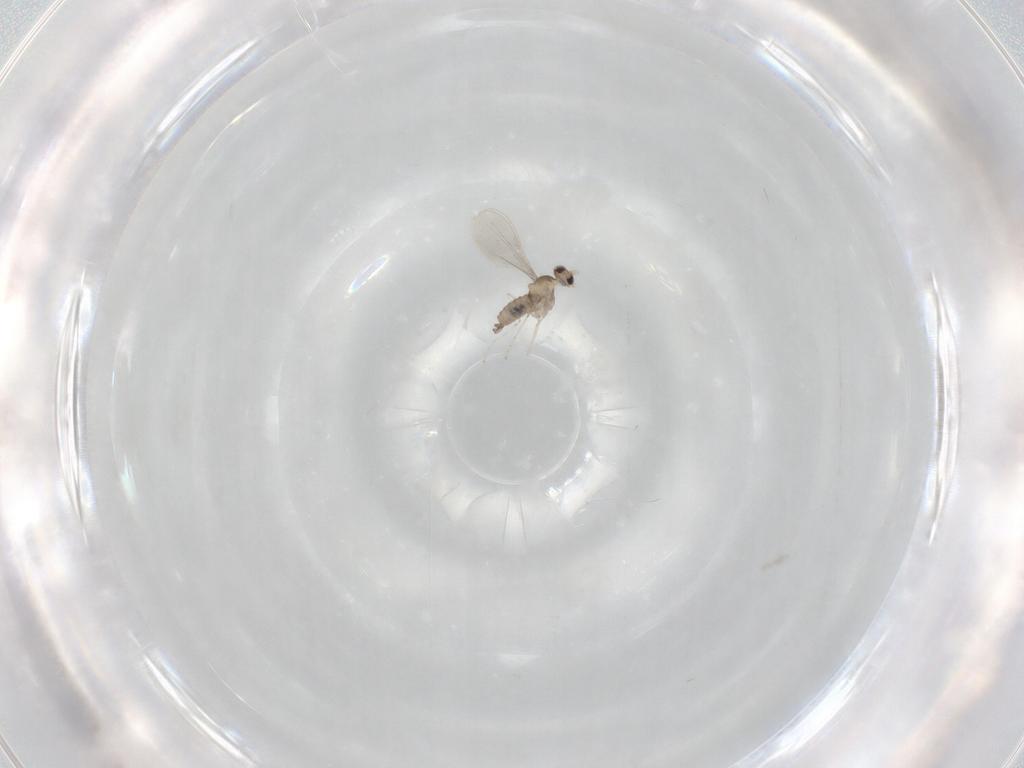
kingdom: Animalia
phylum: Arthropoda
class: Insecta
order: Diptera
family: Cecidomyiidae
